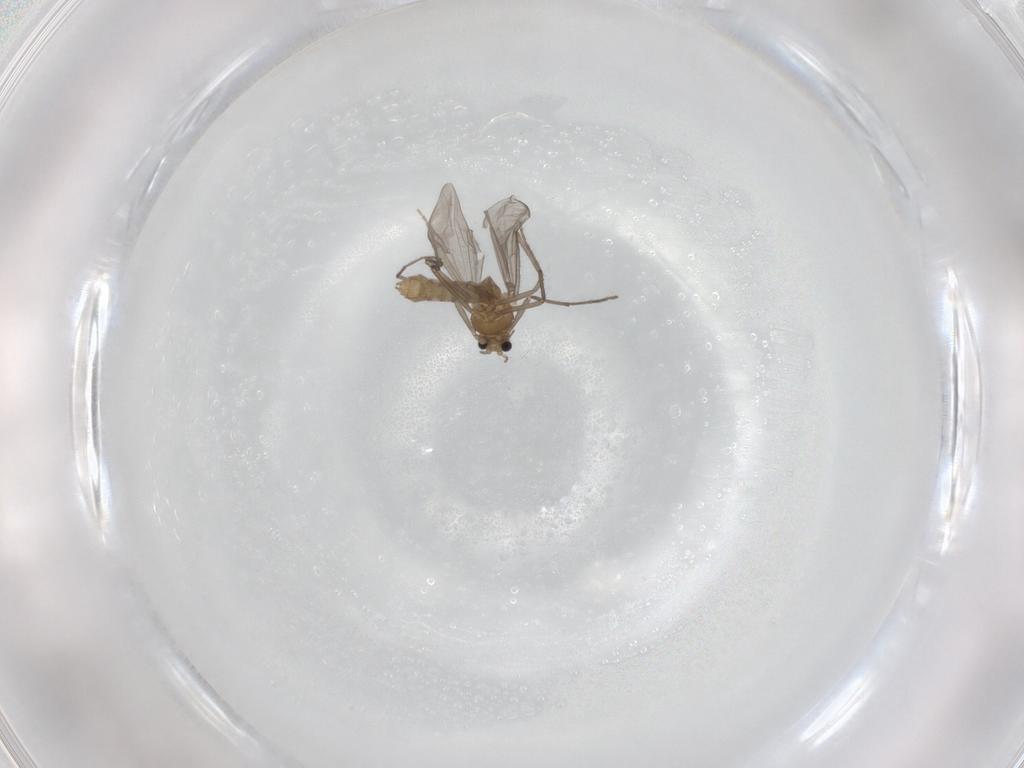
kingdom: Animalia
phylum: Arthropoda
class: Insecta
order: Diptera
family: Chironomidae
